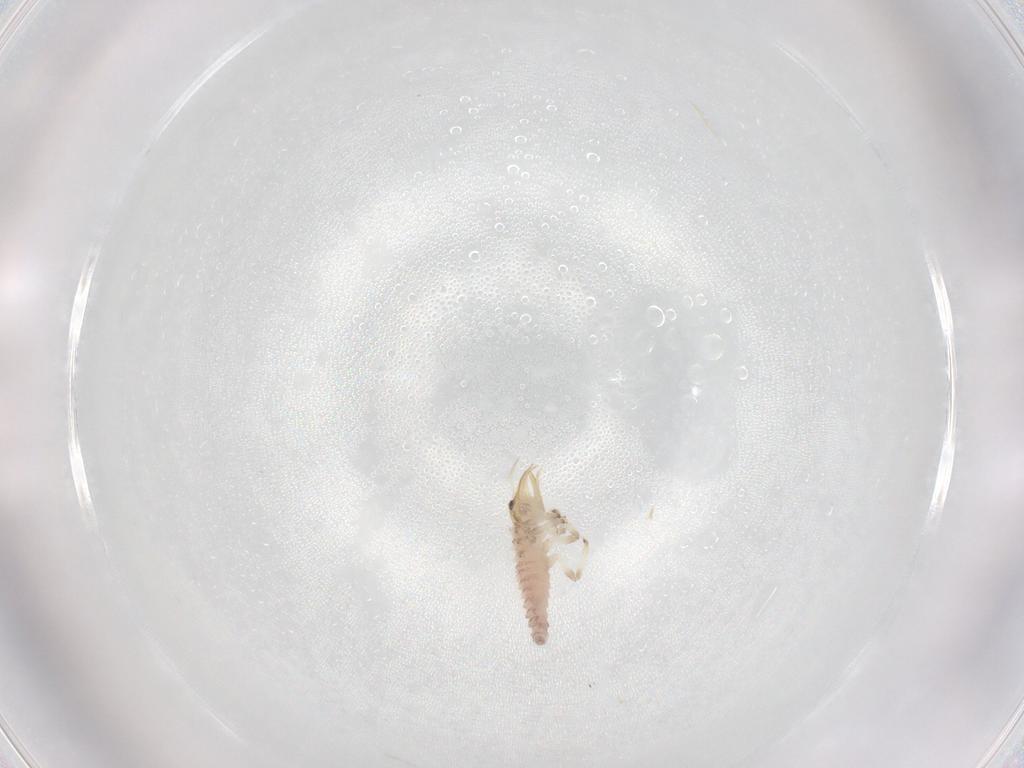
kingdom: Animalia
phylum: Arthropoda
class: Insecta
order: Neuroptera
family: Chrysopidae
